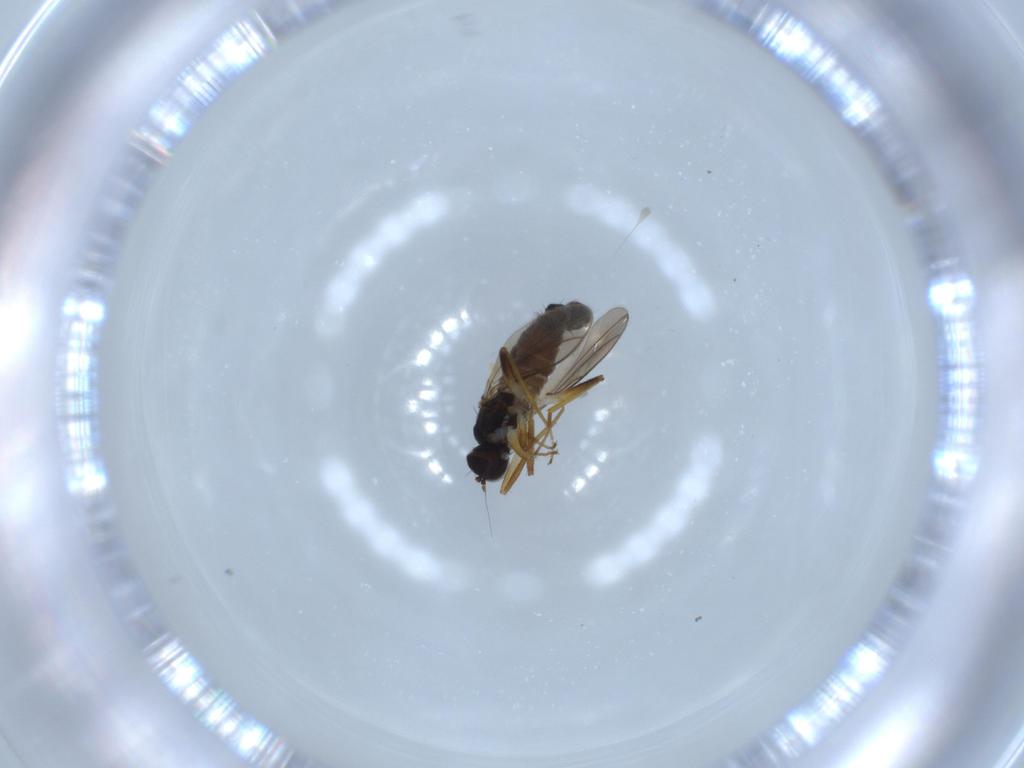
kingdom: Animalia
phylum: Arthropoda
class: Insecta
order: Diptera
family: Hybotidae
